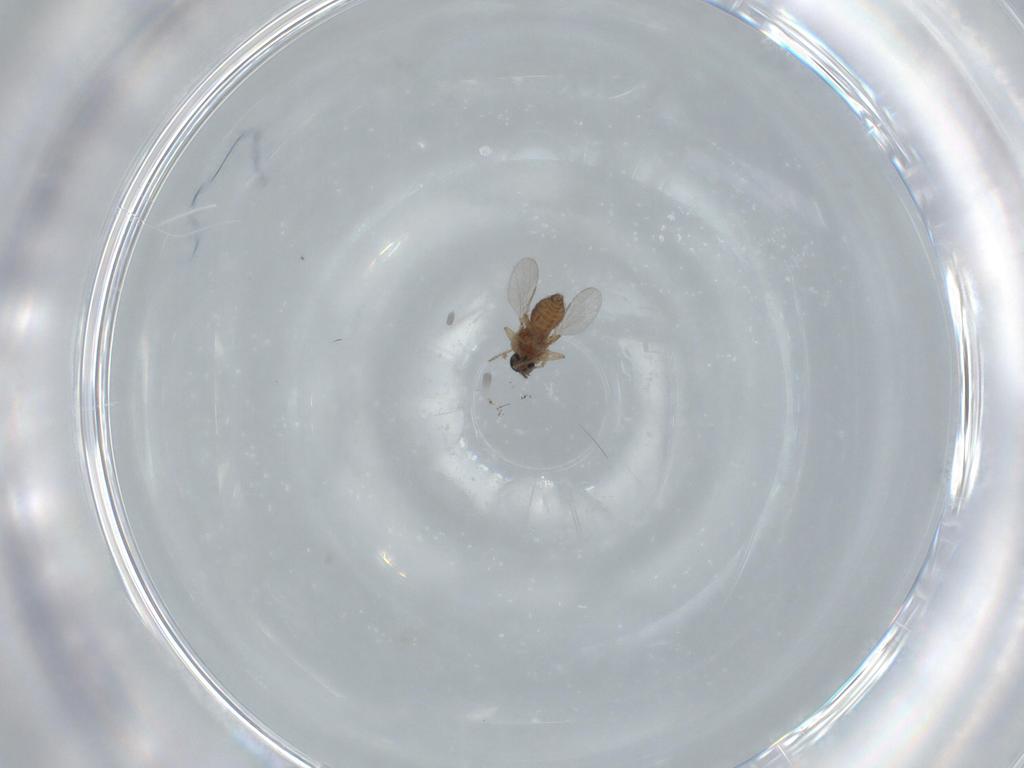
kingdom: Animalia
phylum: Arthropoda
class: Insecta
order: Diptera
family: Ceratopogonidae
